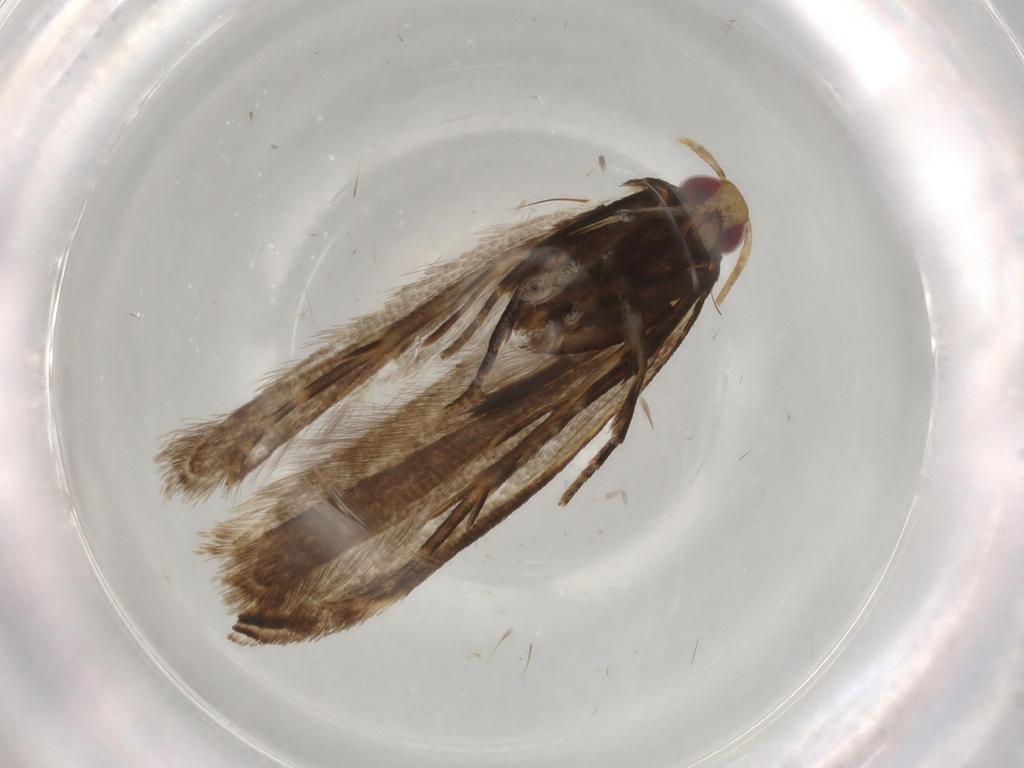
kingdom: Animalia
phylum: Arthropoda
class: Insecta
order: Lepidoptera
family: Gelechiidae
